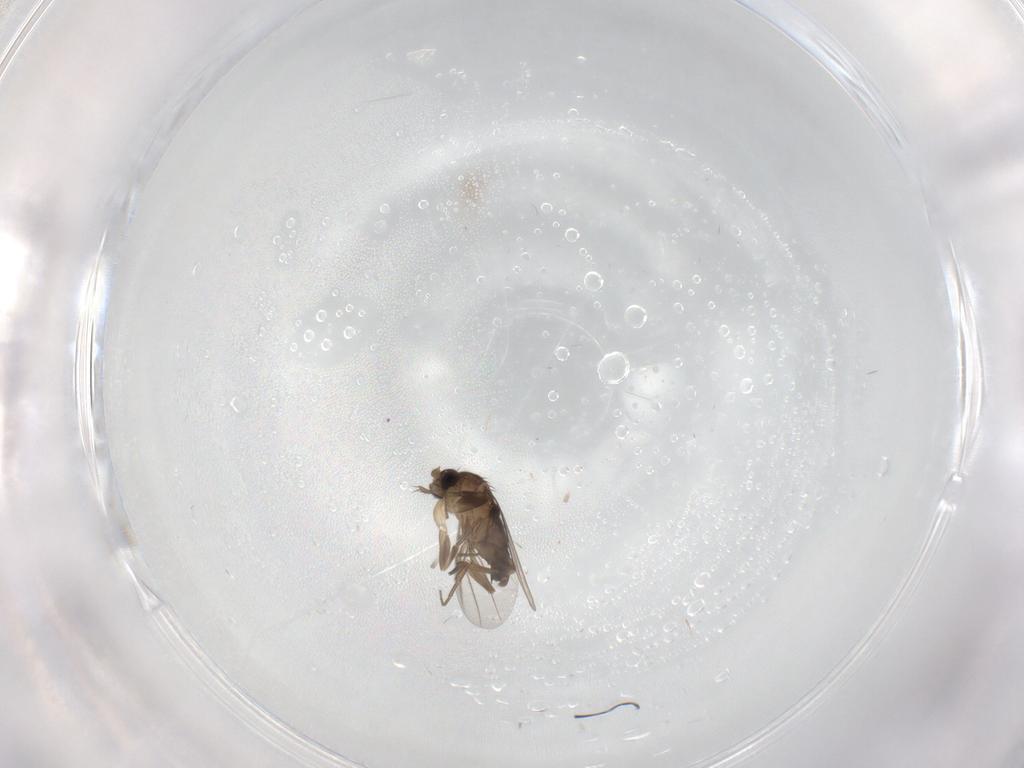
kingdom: Animalia
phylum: Arthropoda
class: Insecta
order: Diptera
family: Phoridae
